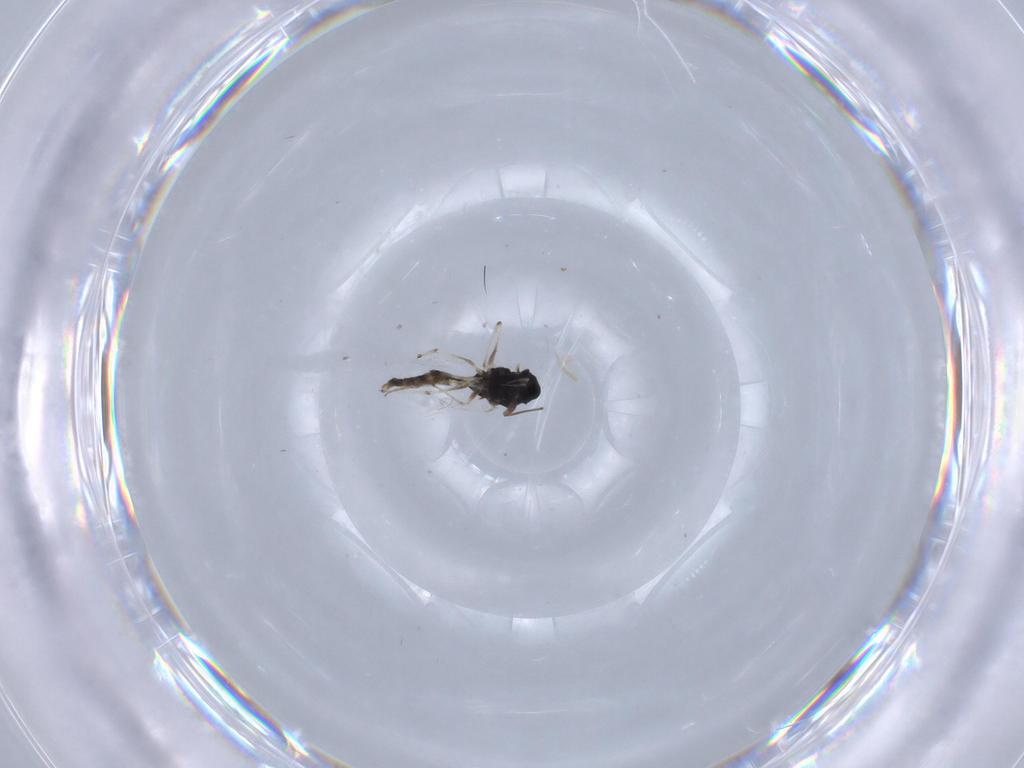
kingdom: Animalia
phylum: Arthropoda
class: Insecta
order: Diptera
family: Chironomidae
